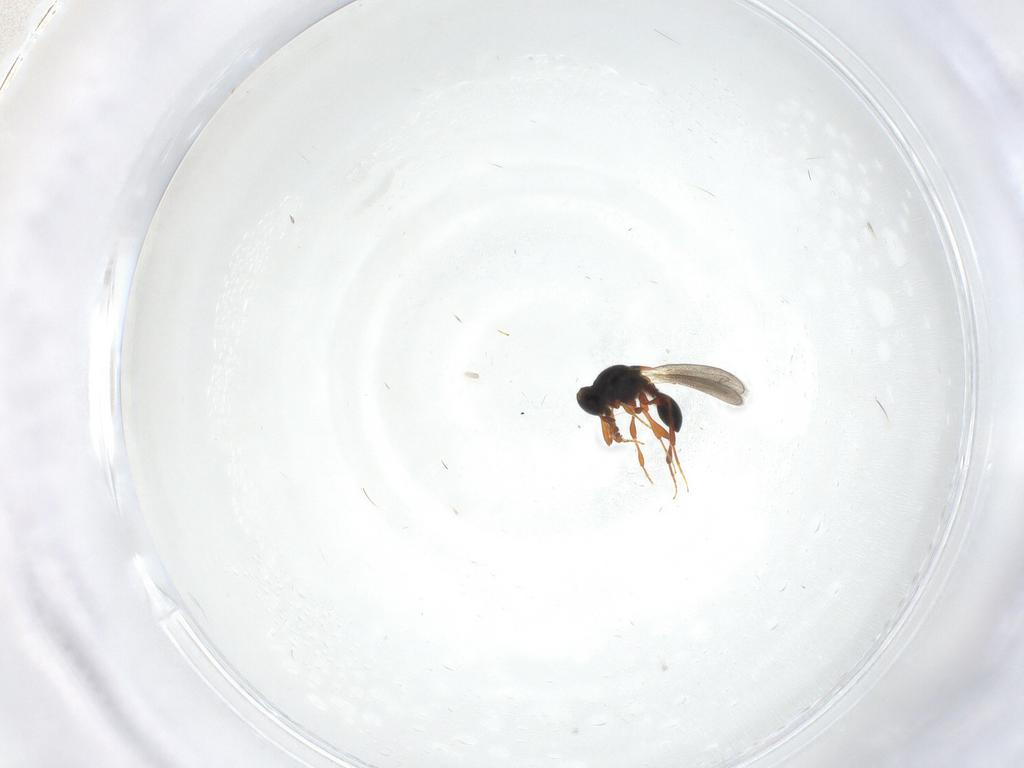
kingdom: Animalia
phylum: Arthropoda
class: Insecta
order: Hymenoptera
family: Platygastridae
